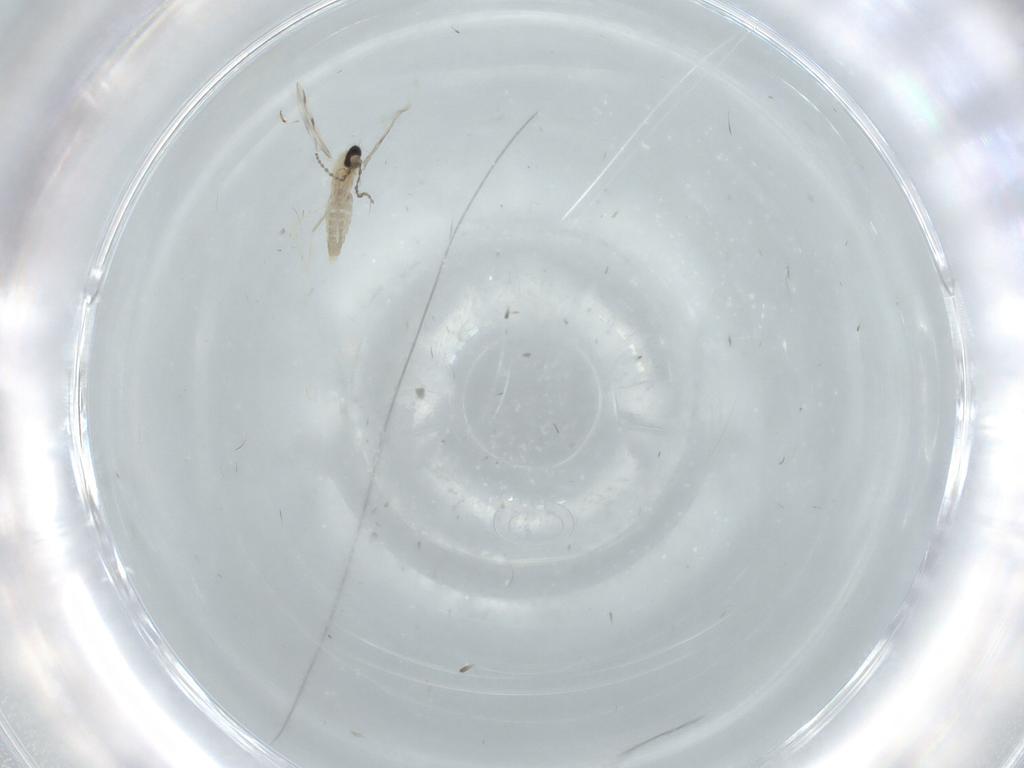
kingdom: Animalia
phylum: Arthropoda
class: Insecta
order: Diptera
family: Cecidomyiidae
